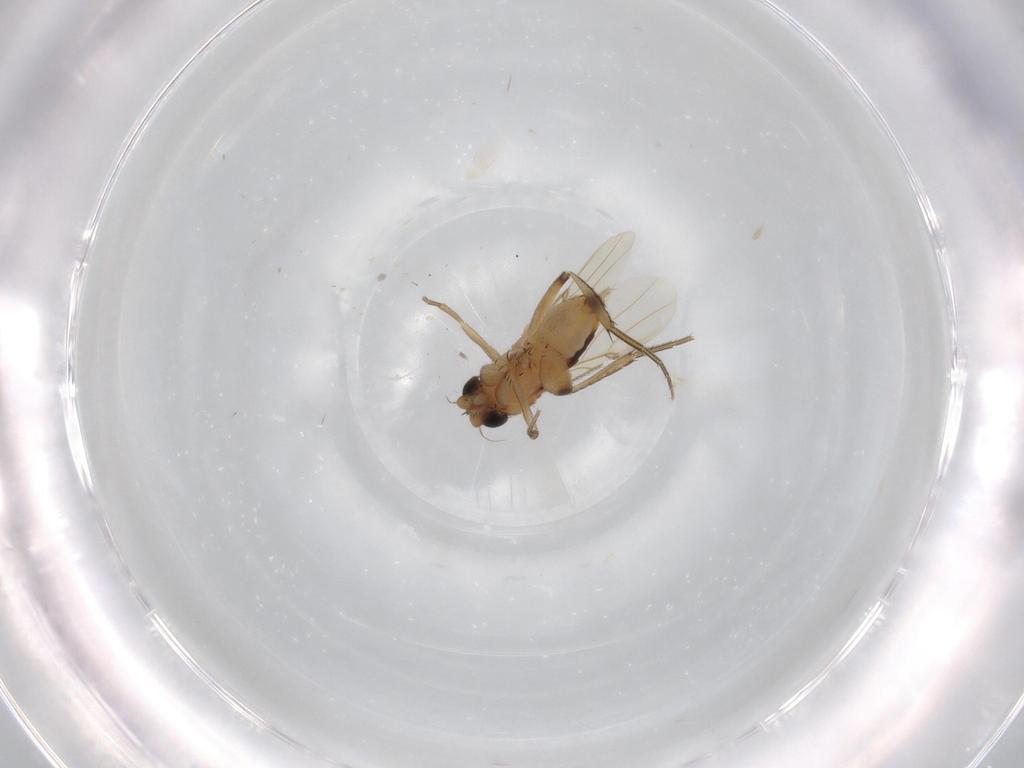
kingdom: Animalia
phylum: Arthropoda
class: Insecta
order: Diptera
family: Phoridae
